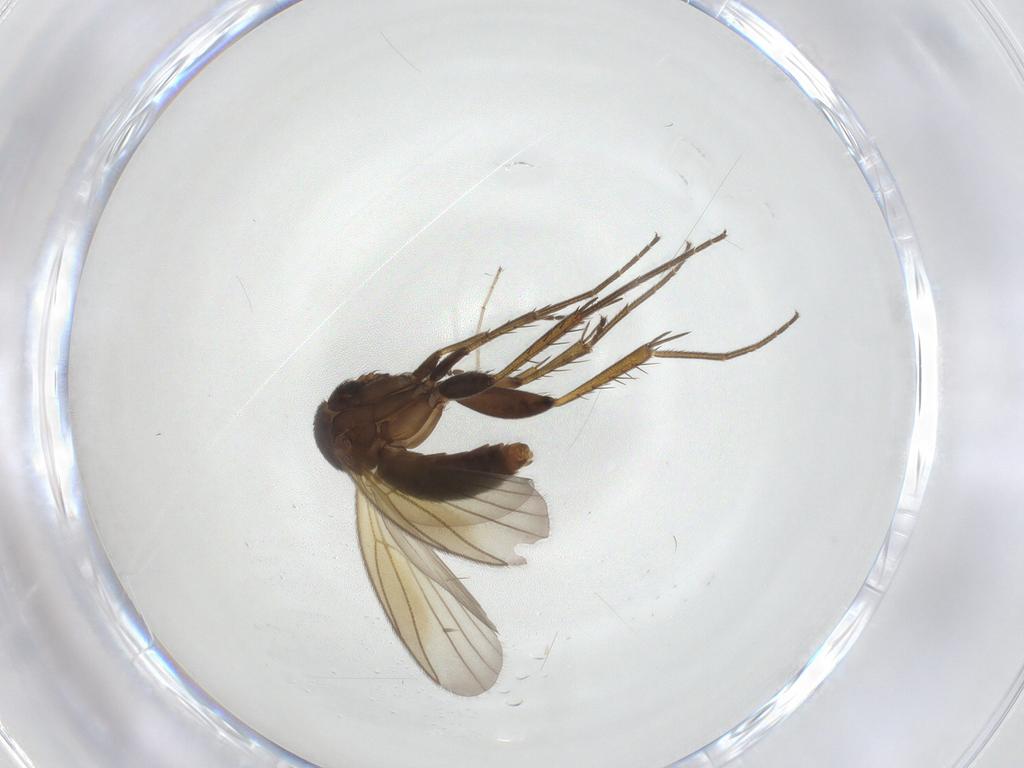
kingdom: Animalia
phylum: Arthropoda
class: Insecta
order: Diptera
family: Chironomidae
